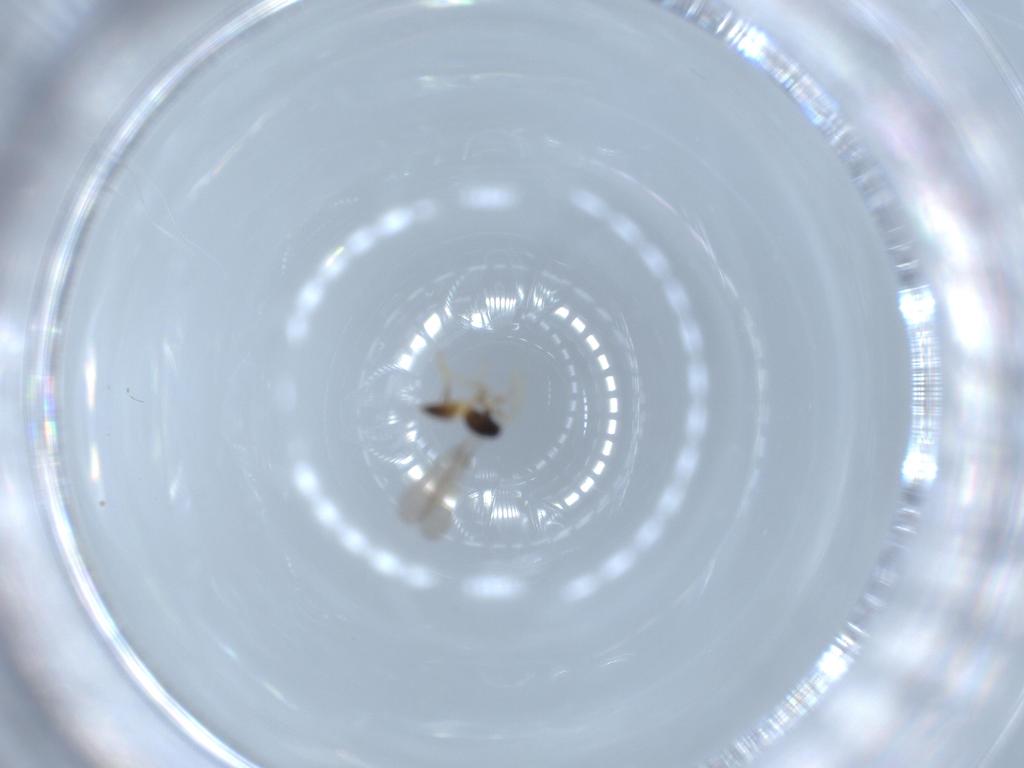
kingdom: Animalia
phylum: Arthropoda
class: Insecta
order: Hymenoptera
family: Mymaridae
